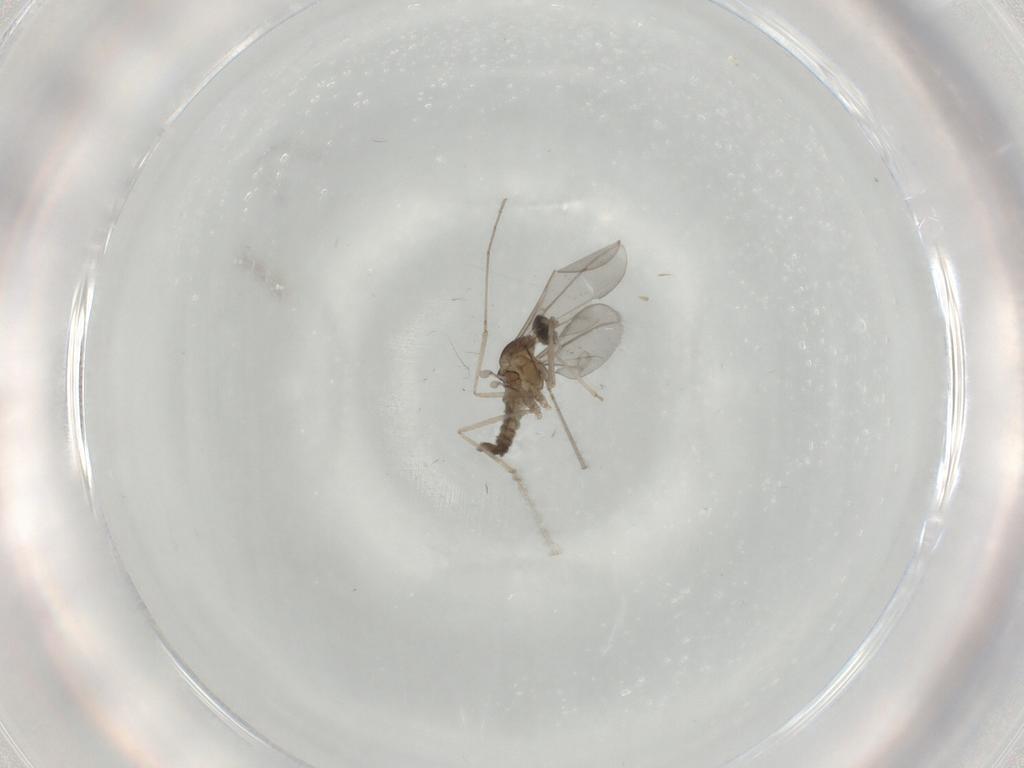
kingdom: Animalia
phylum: Arthropoda
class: Insecta
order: Diptera
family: Cecidomyiidae
